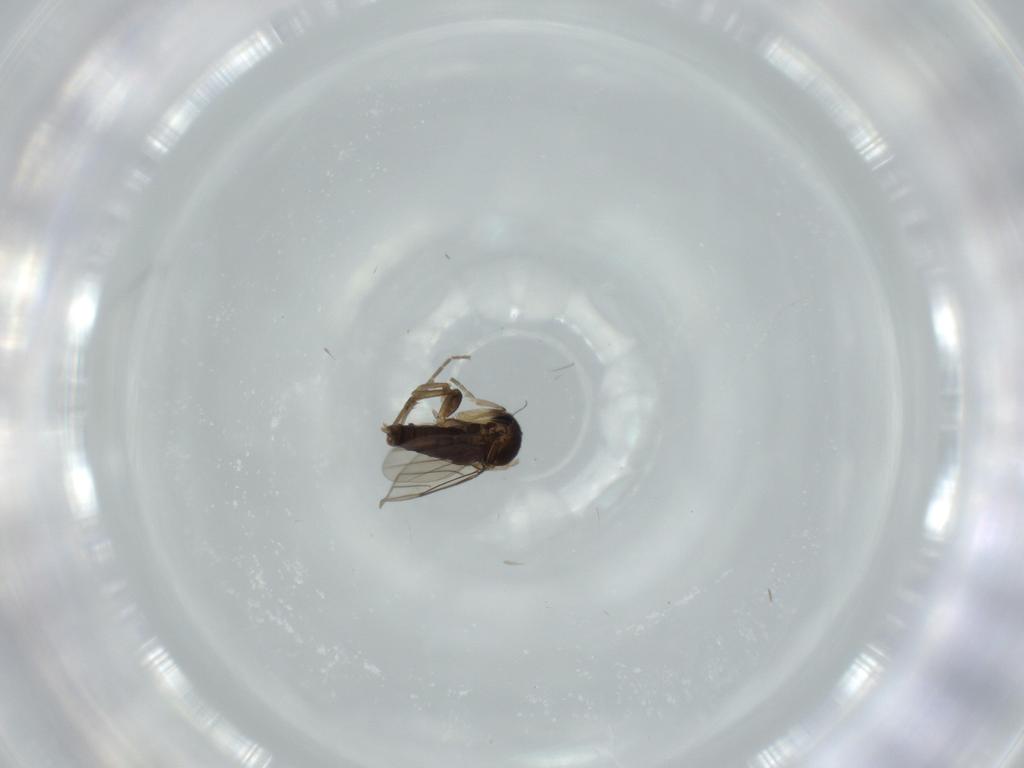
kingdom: Animalia
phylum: Arthropoda
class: Insecta
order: Diptera
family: Phoridae
